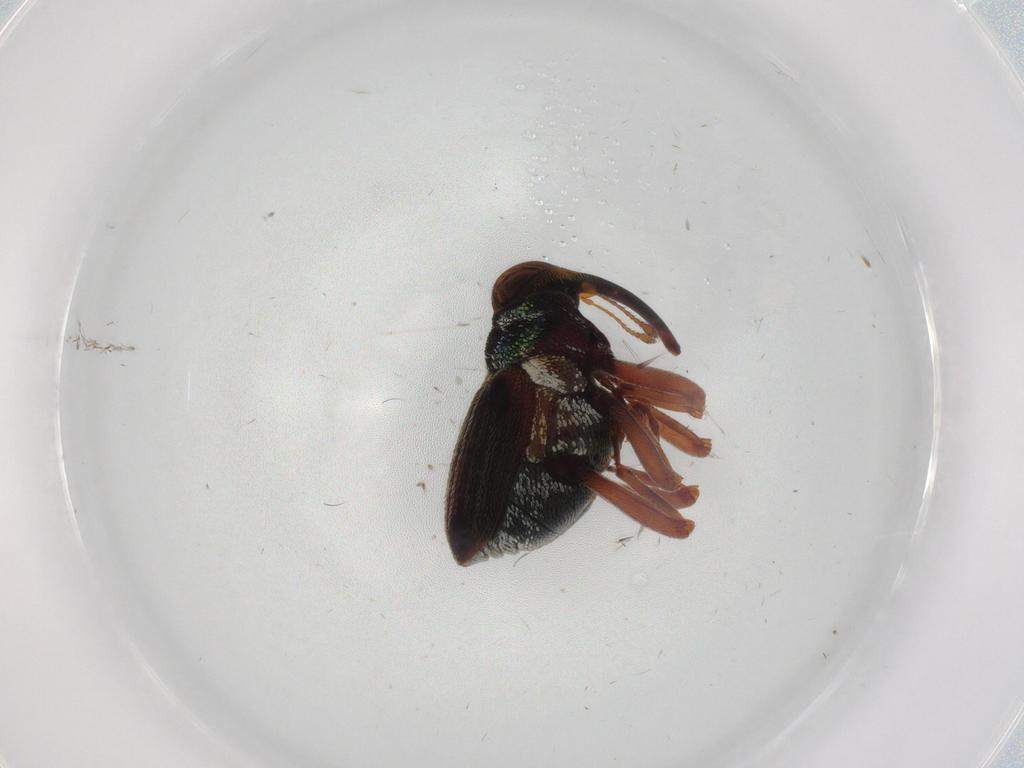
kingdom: Animalia
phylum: Arthropoda
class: Insecta
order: Coleoptera
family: Curculionidae
